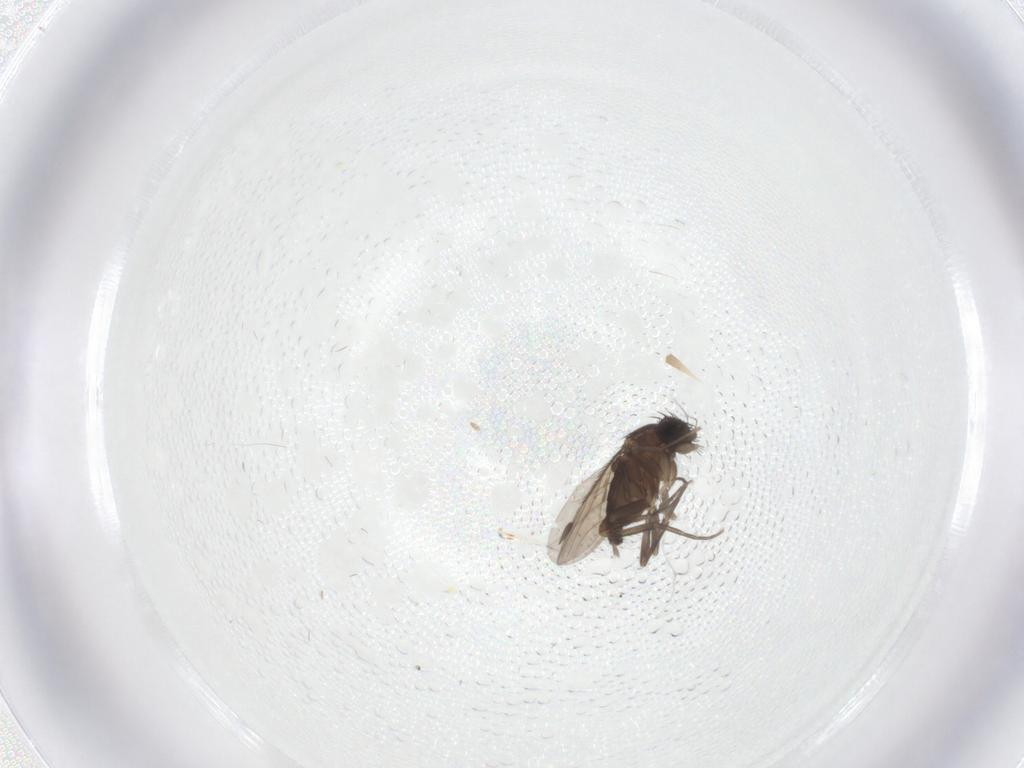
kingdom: Animalia
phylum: Arthropoda
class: Insecta
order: Diptera
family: Phoridae
